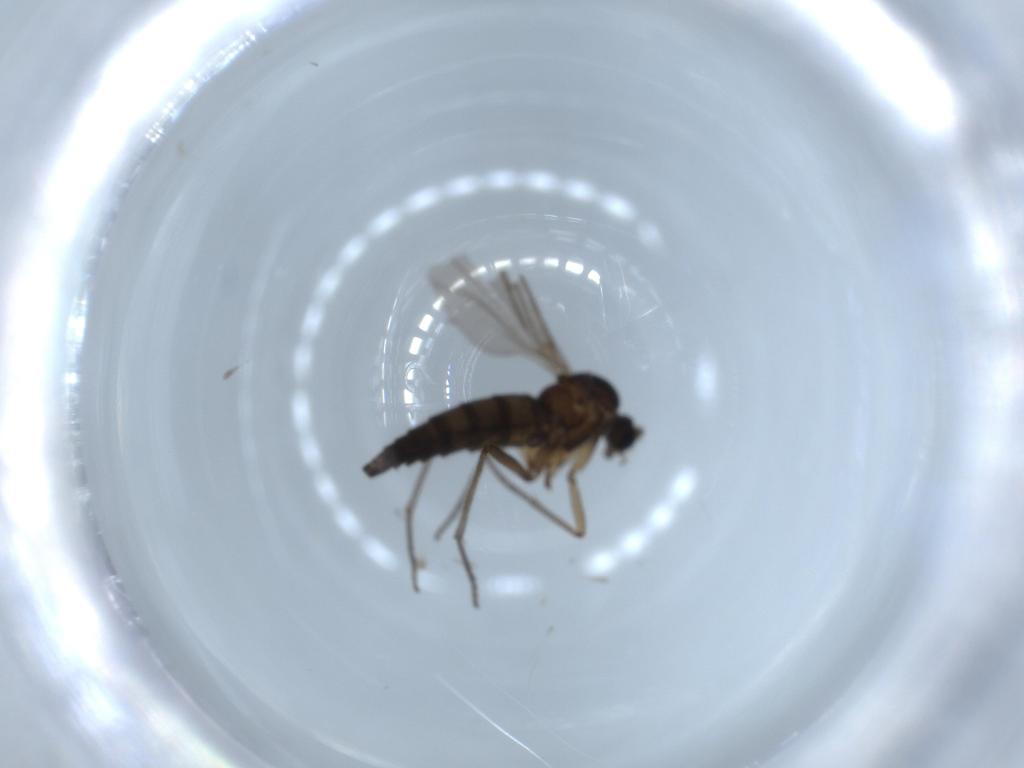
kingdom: Animalia
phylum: Arthropoda
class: Insecta
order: Diptera
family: Sciaridae
